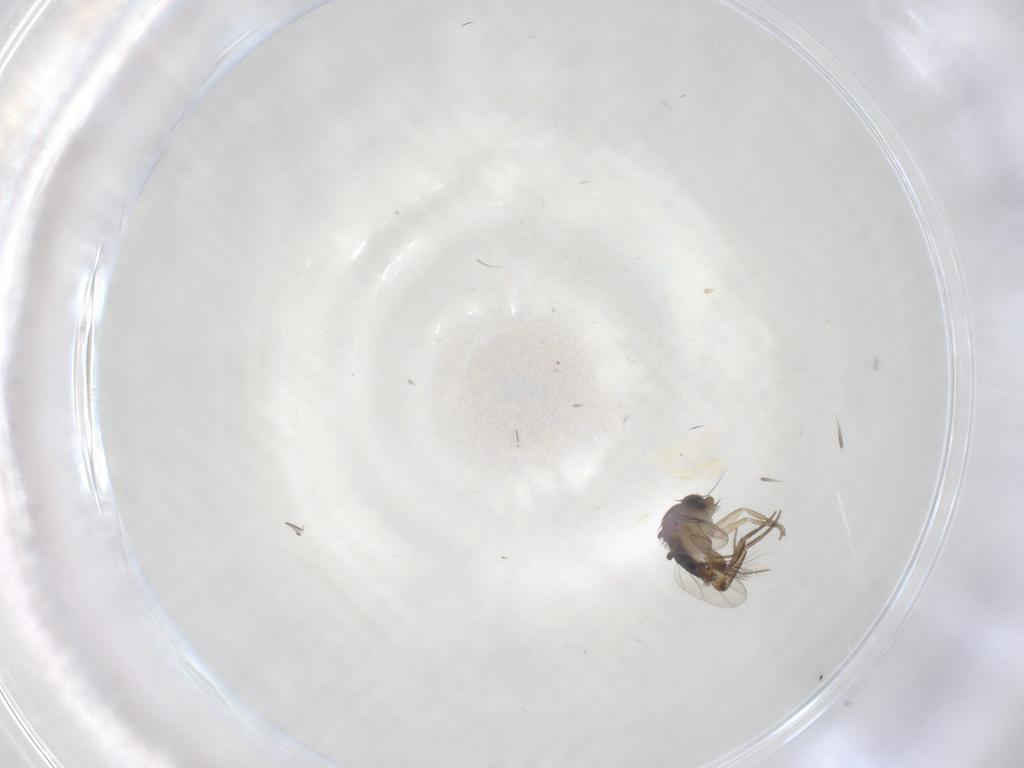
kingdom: Animalia
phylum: Arthropoda
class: Insecta
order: Diptera
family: Phoridae
